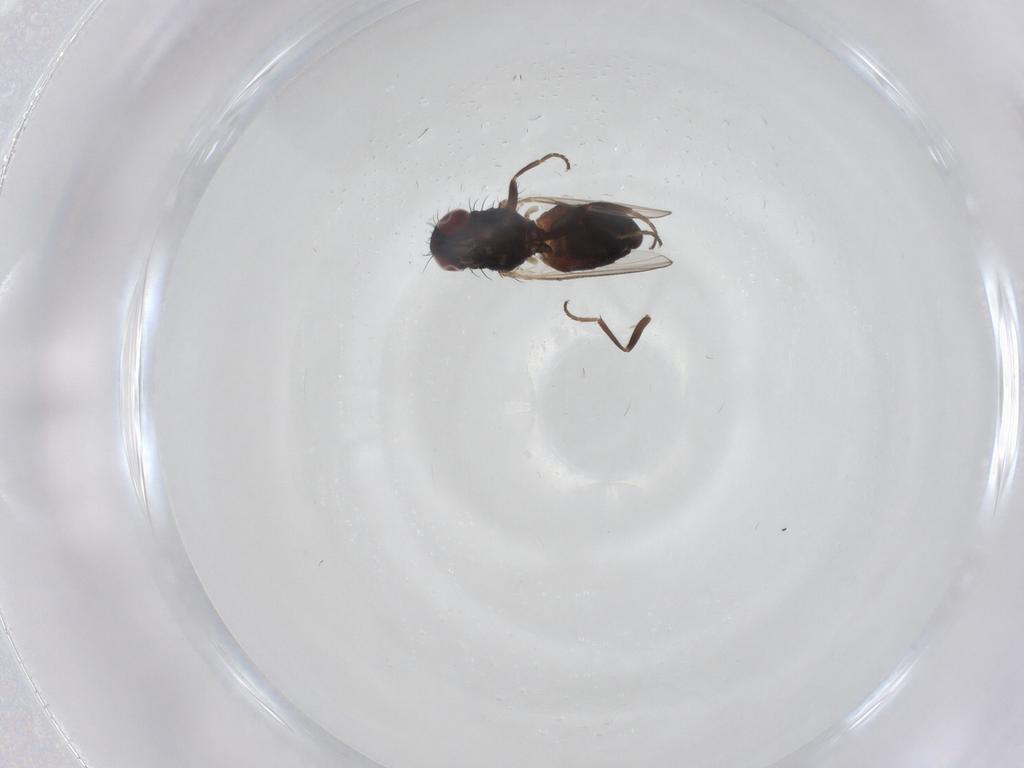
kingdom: Animalia
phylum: Arthropoda
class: Insecta
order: Diptera
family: Carnidae
